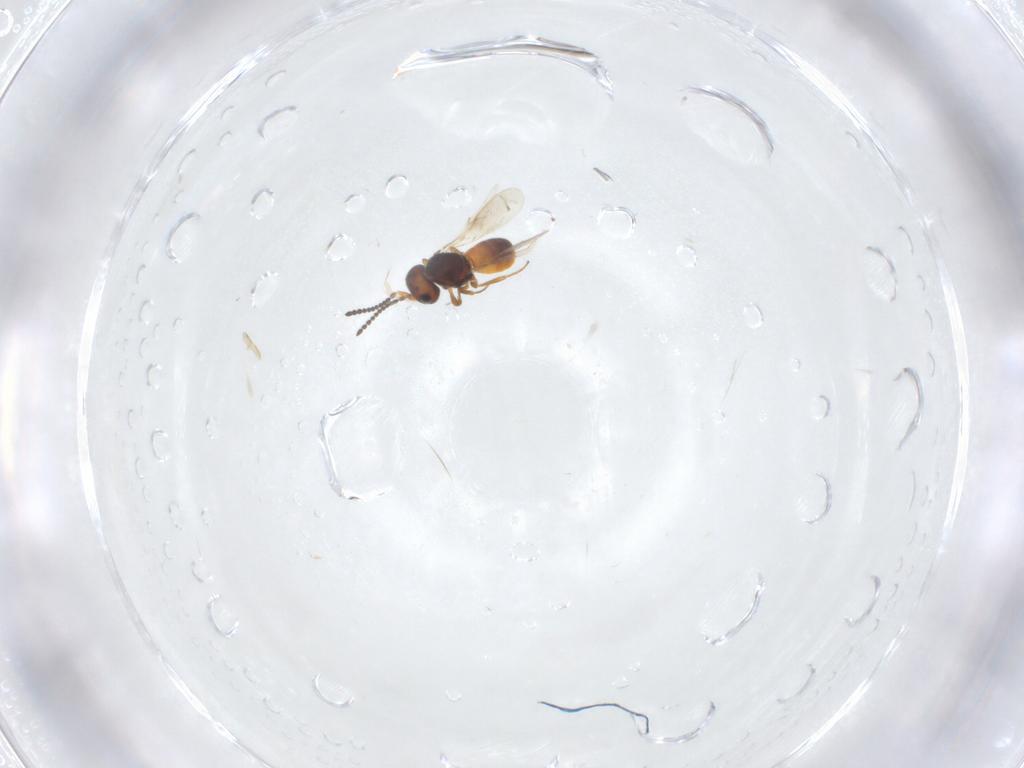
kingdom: Animalia
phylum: Arthropoda
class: Insecta
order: Hymenoptera
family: Scelionidae
